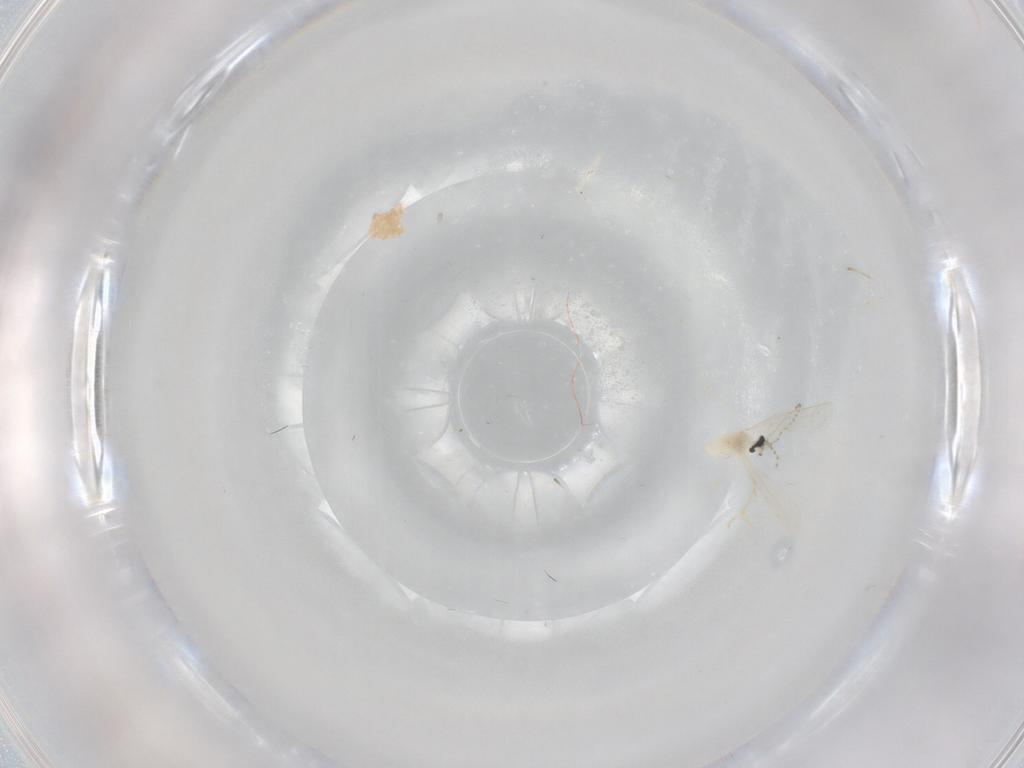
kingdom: Animalia
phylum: Arthropoda
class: Insecta
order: Diptera
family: Cecidomyiidae
